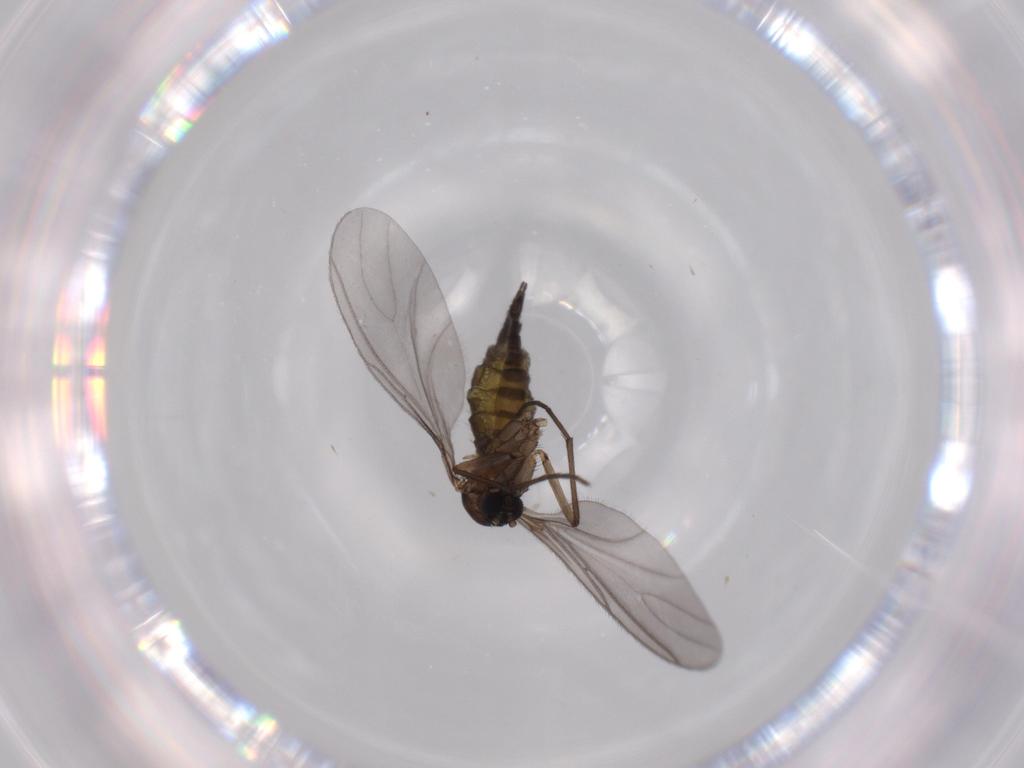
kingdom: Animalia
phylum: Arthropoda
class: Insecta
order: Diptera
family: Sciaridae
